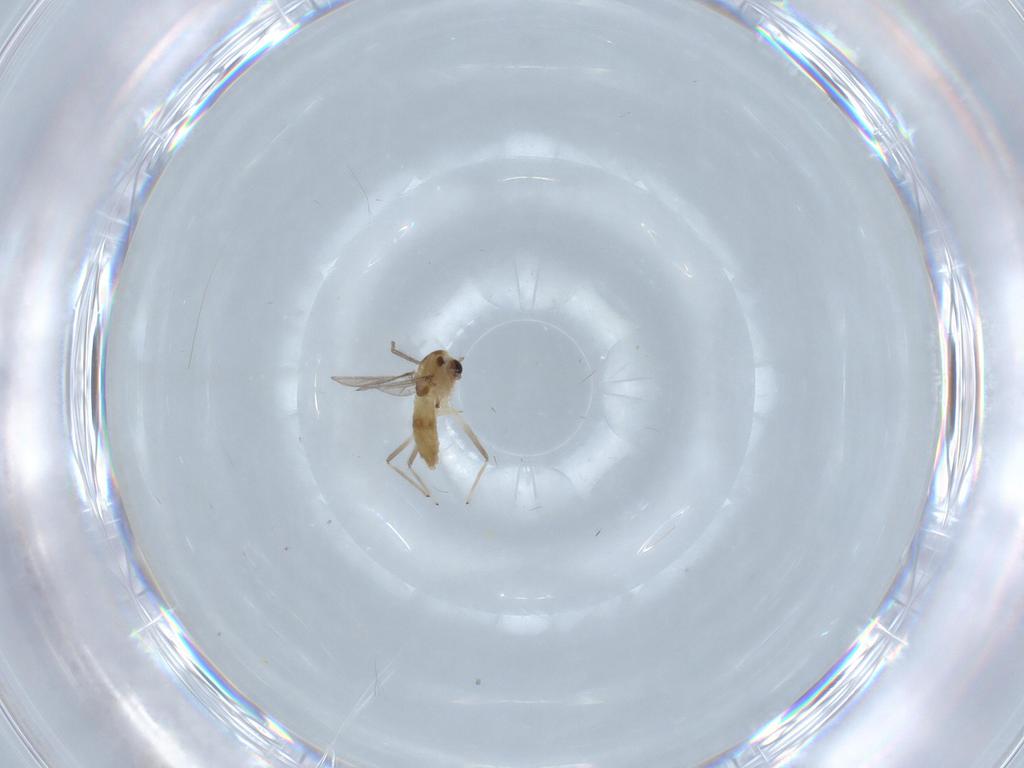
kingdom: Animalia
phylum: Arthropoda
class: Insecta
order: Diptera
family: Chironomidae
